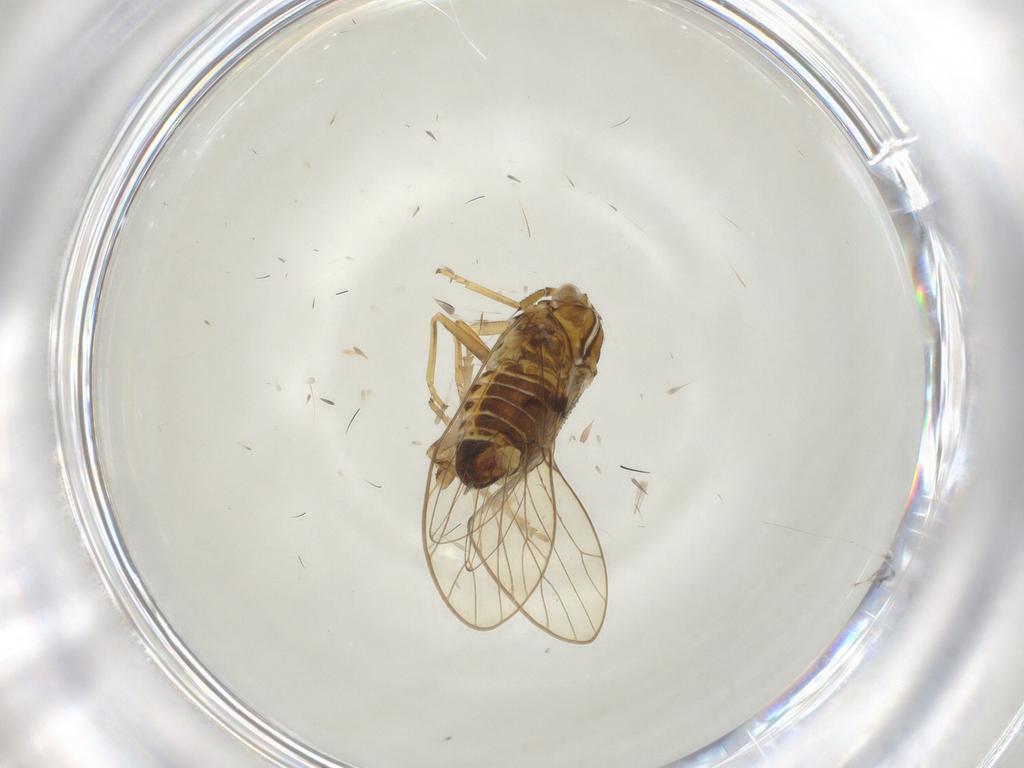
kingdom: Animalia
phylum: Arthropoda
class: Insecta
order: Hemiptera
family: Delphacidae
